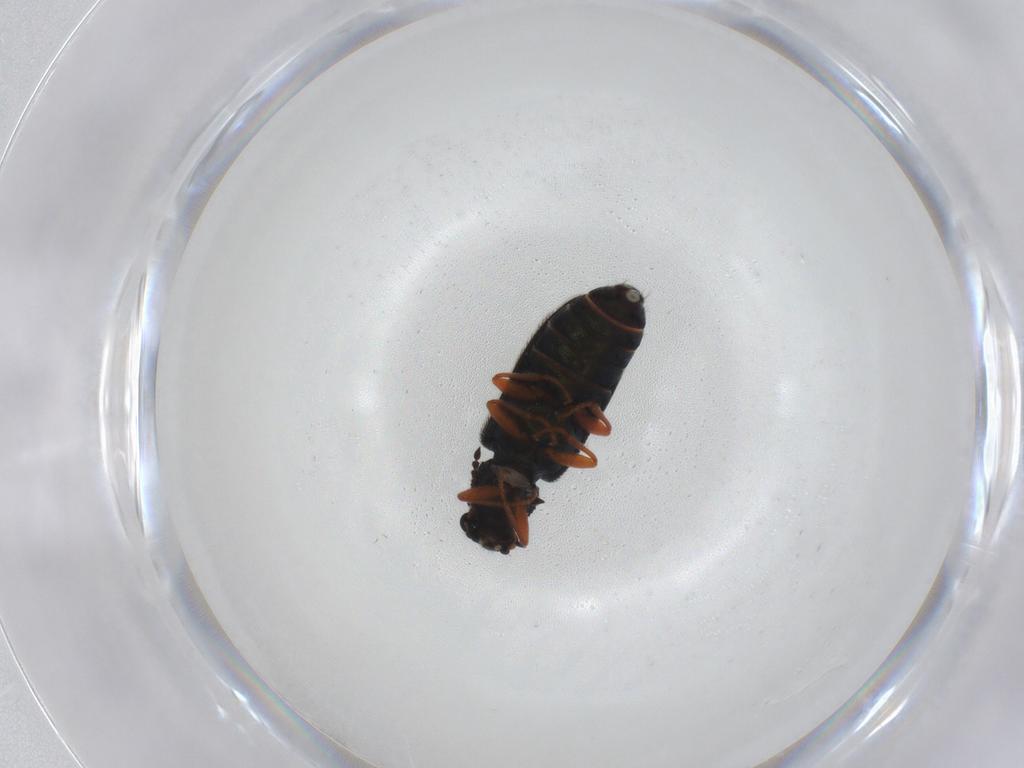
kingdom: Animalia
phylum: Arthropoda
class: Insecta
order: Coleoptera
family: Melyridae
